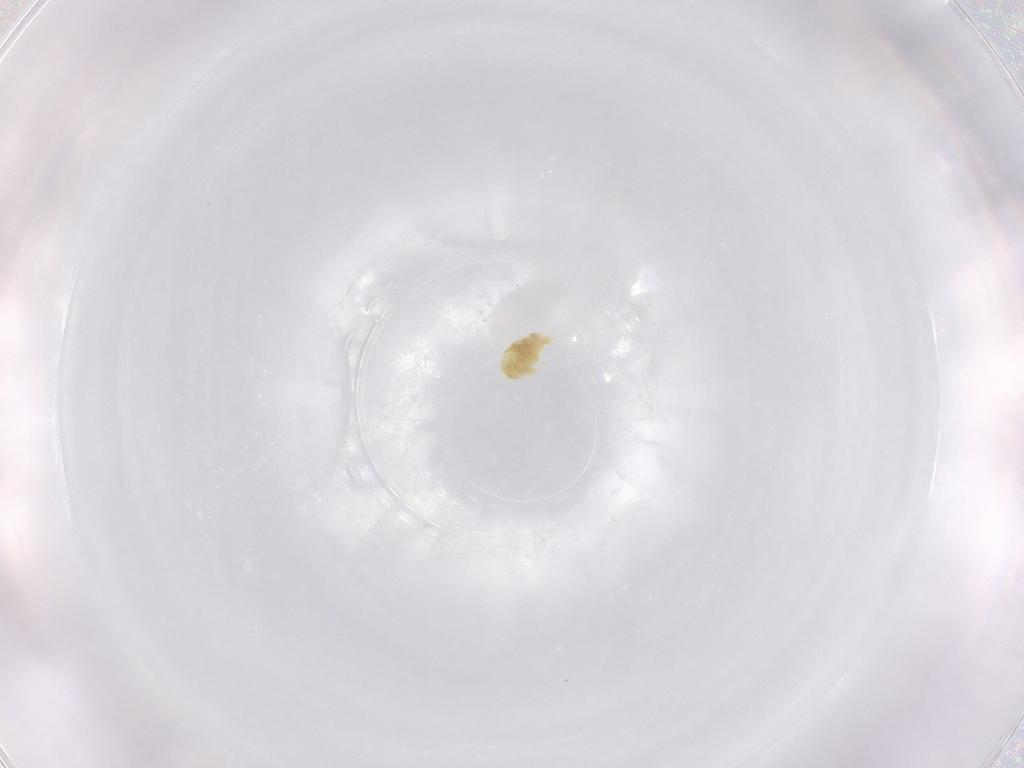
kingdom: Animalia
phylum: Arthropoda
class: Arachnida
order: Trombidiformes
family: Eupodidae
